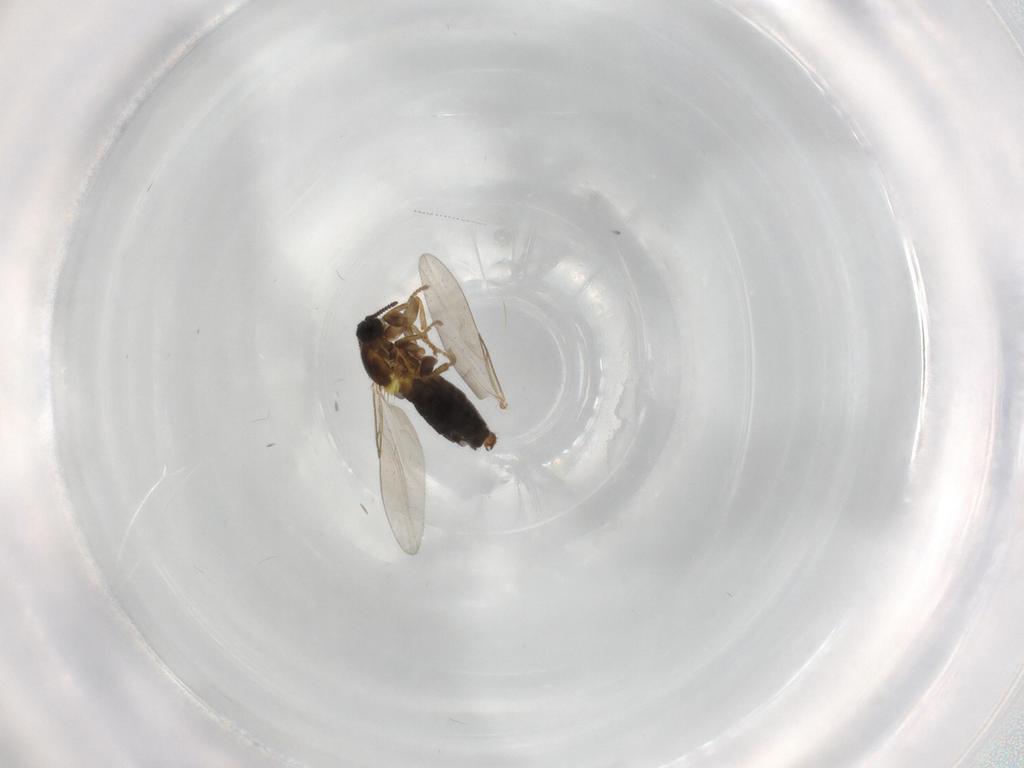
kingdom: Animalia
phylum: Arthropoda
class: Insecta
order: Diptera
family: Scatopsidae
